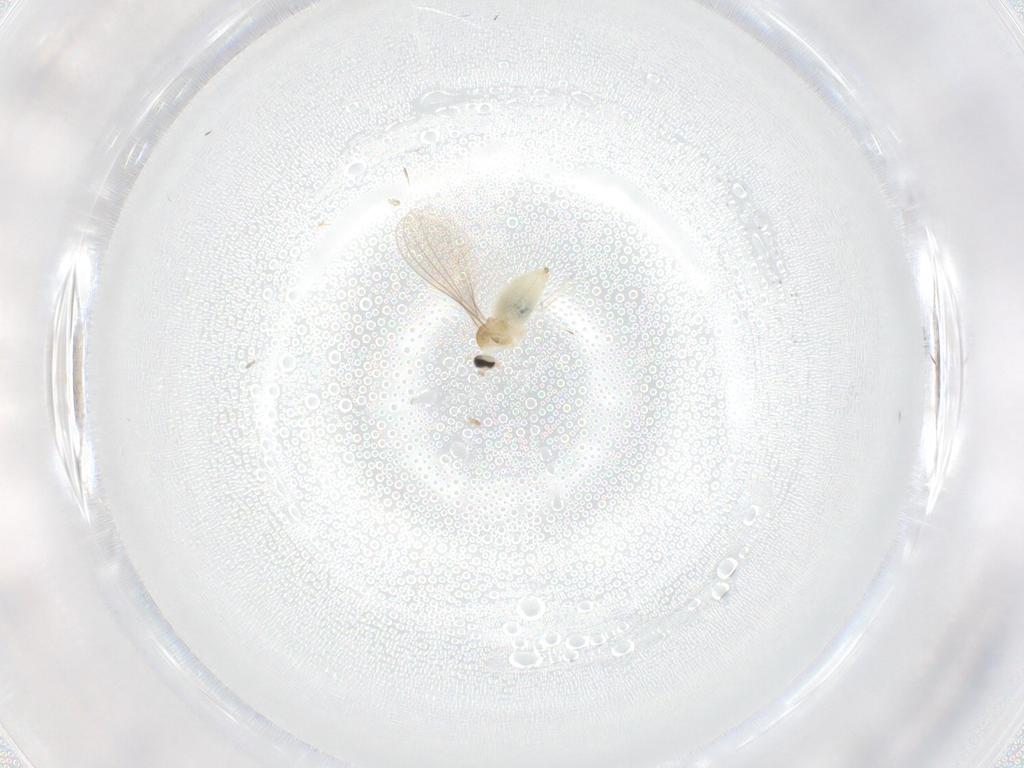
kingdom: Animalia
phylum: Arthropoda
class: Insecta
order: Diptera
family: Cecidomyiidae
